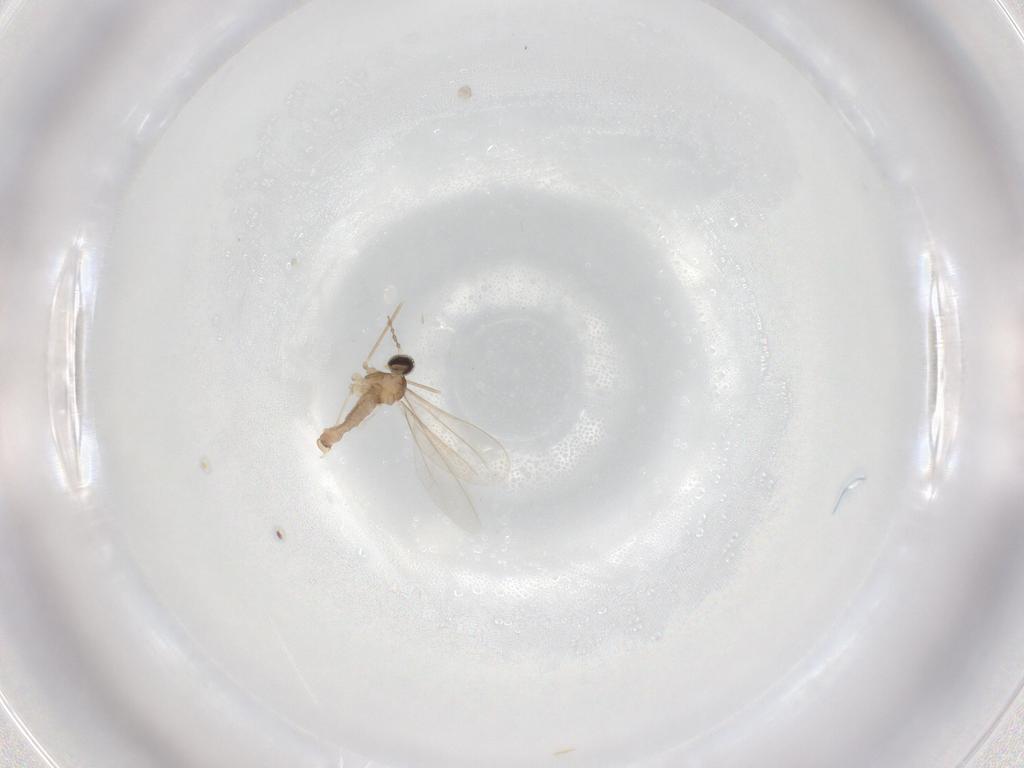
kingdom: Animalia
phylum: Arthropoda
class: Insecta
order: Diptera
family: Cecidomyiidae
